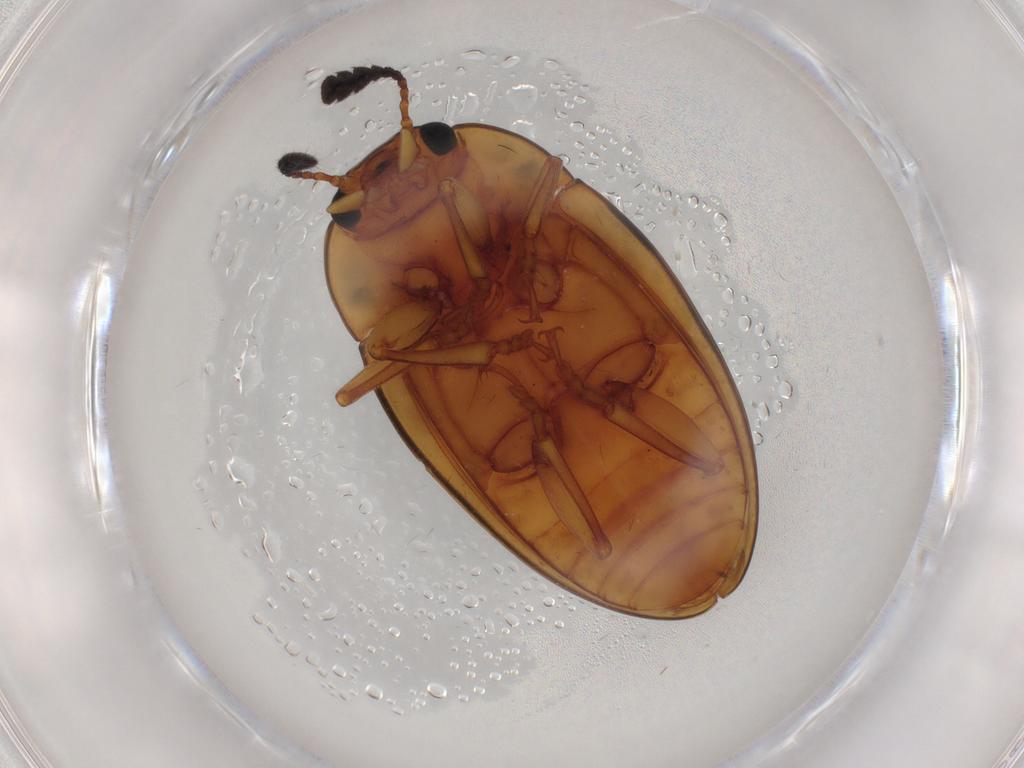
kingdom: Animalia
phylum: Arthropoda
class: Insecta
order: Coleoptera
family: Erotylidae
